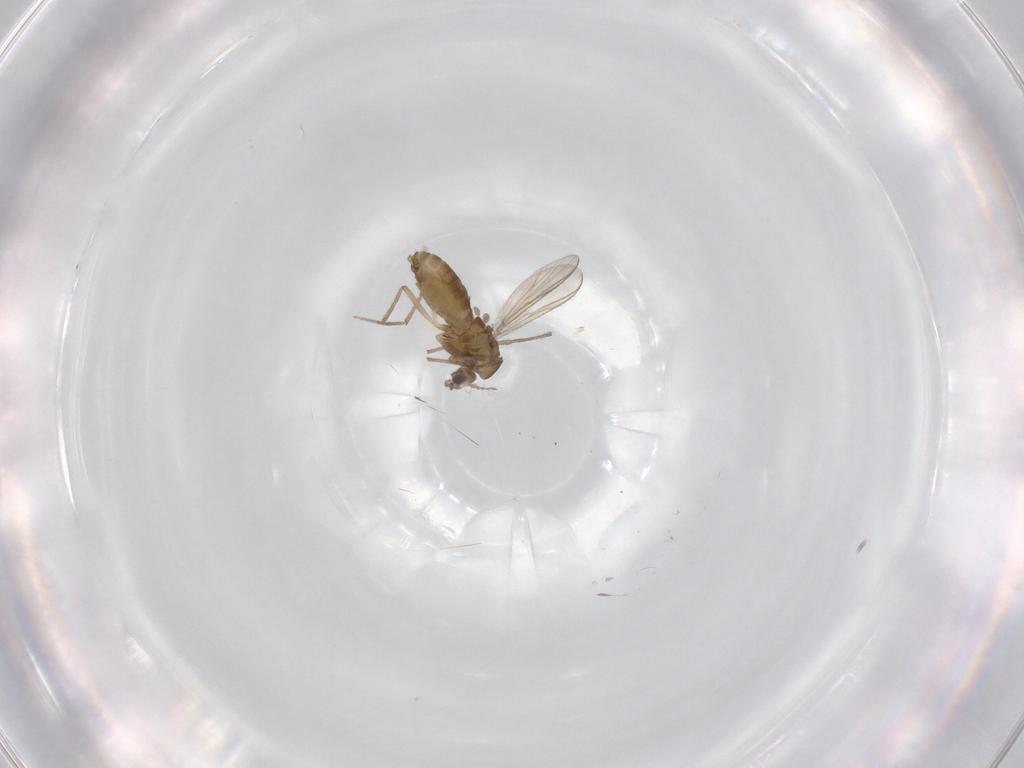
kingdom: Animalia
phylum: Arthropoda
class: Insecta
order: Diptera
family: Chironomidae
